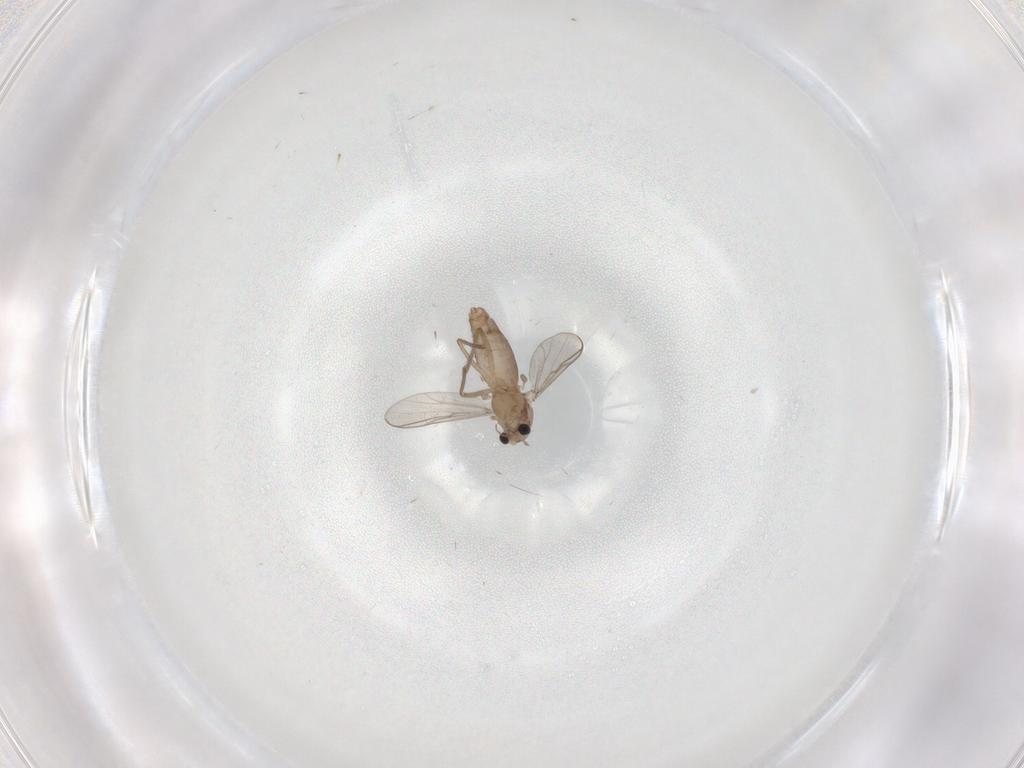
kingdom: Animalia
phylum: Arthropoda
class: Insecta
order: Diptera
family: Chironomidae
